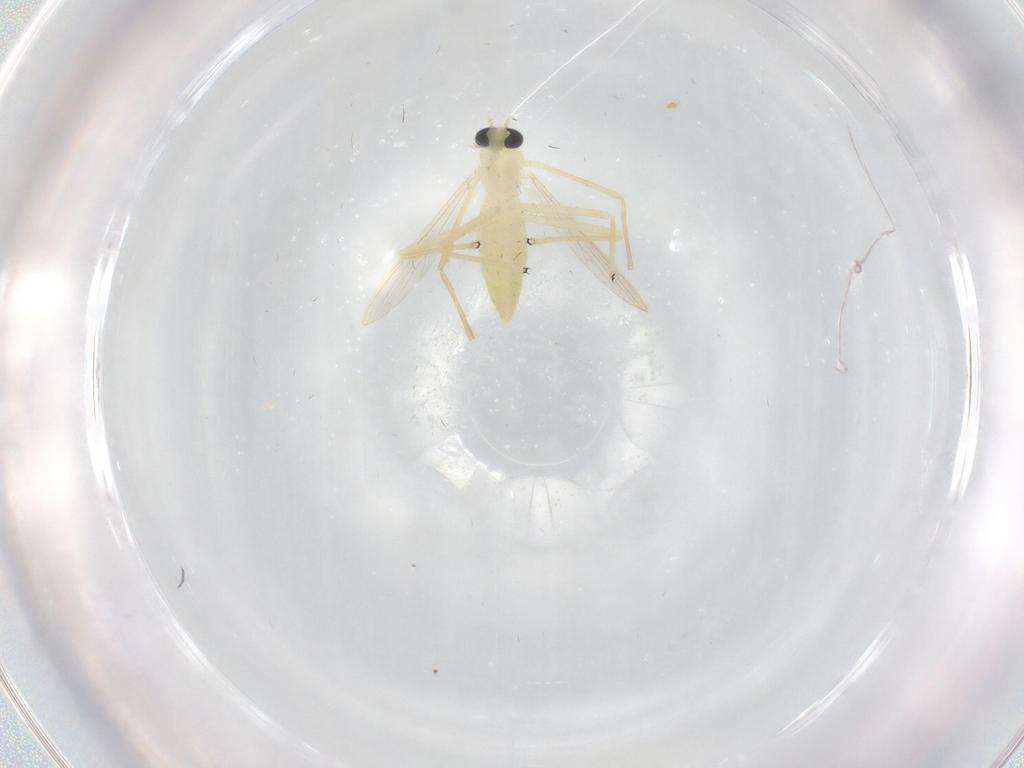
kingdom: Animalia
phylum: Arthropoda
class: Insecta
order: Diptera
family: Chironomidae
